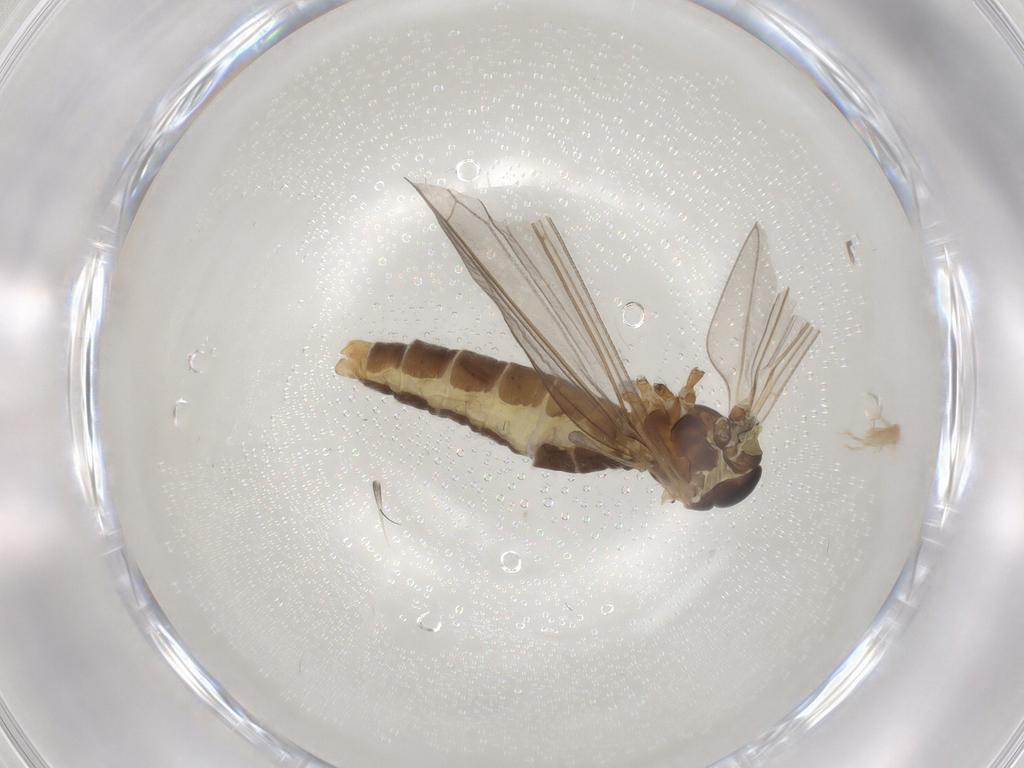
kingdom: Animalia
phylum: Arthropoda
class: Insecta
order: Diptera
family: Limoniidae
